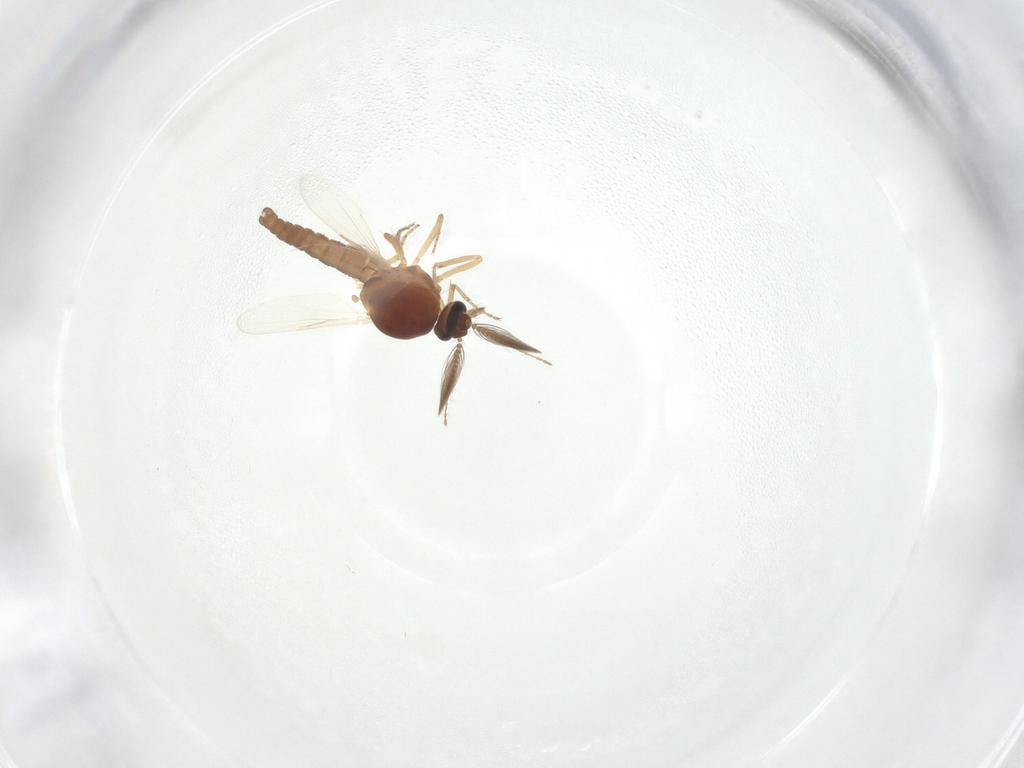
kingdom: Animalia
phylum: Arthropoda
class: Insecta
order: Diptera
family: Ceratopogonidae
